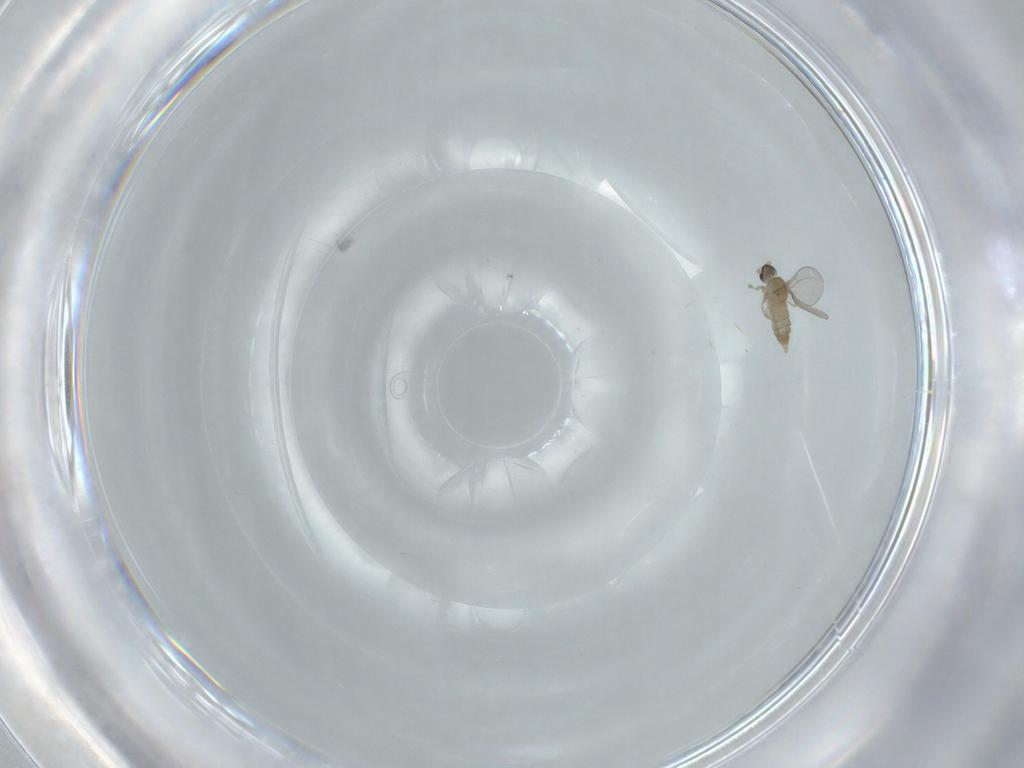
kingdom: Animalia
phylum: Arthropoda
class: Insecta
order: Diptera
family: Cecidomyiidae
